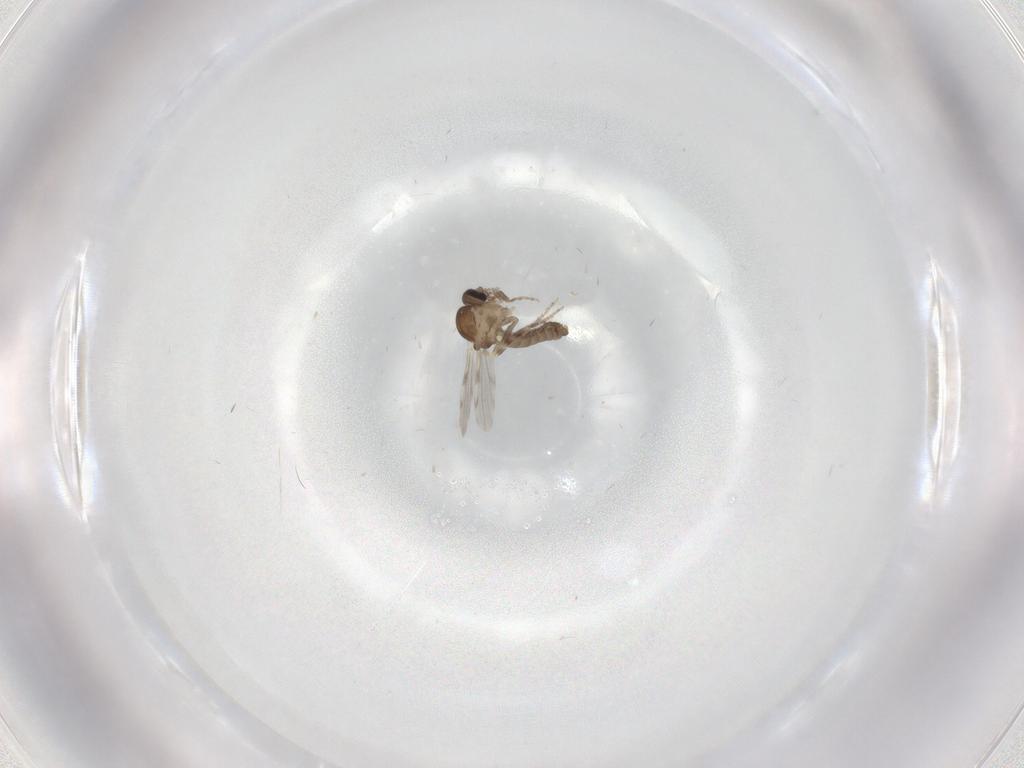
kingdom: Animalia
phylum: Arthropoda
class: Insecta
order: Diptera
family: Ceratopogonidae
